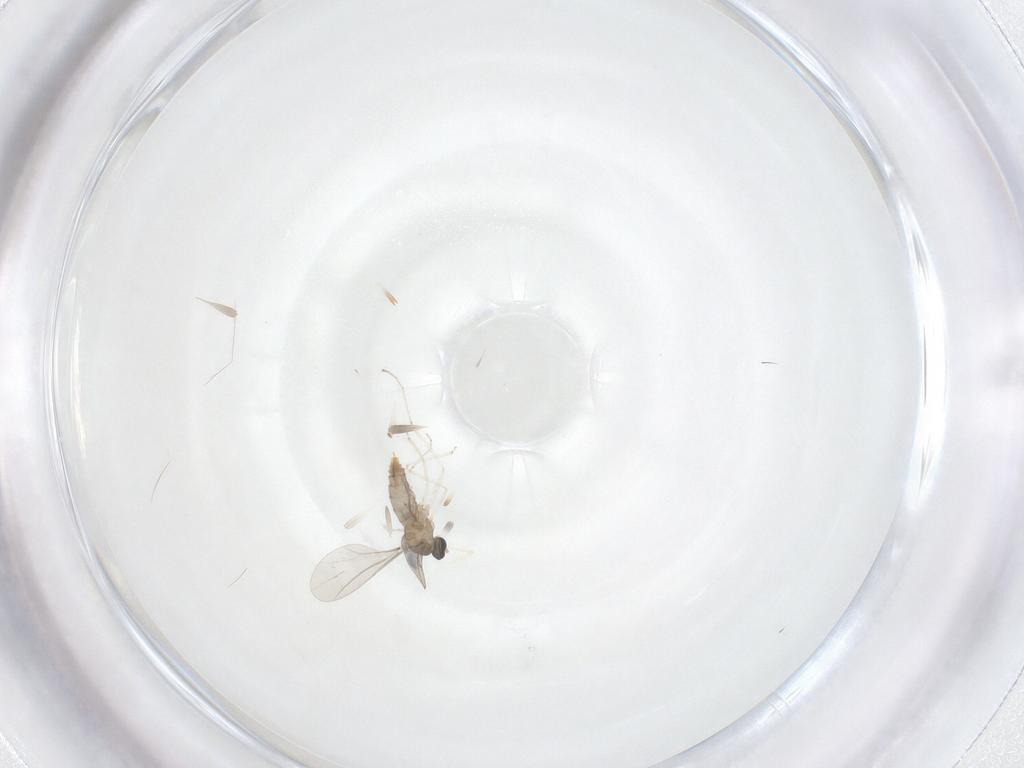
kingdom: Animalia
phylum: Arthropoda
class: Insecta
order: Diptera
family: Cecidomyiidae
